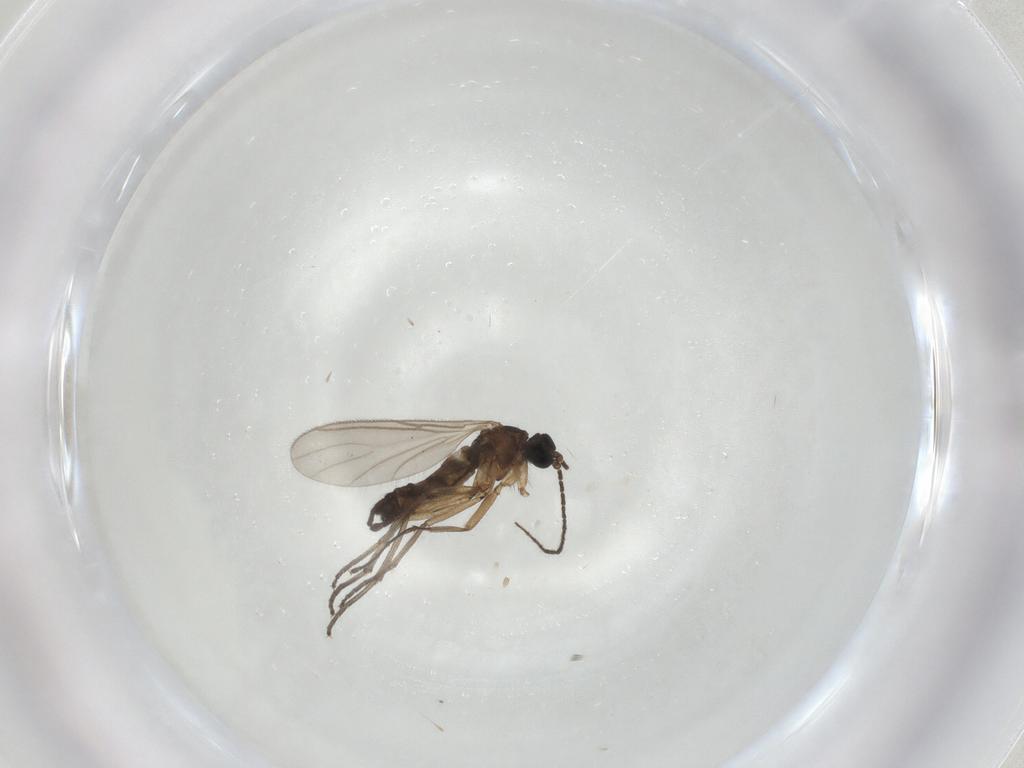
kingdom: Animalia
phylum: Arthropoda
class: Insecta
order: Diptera
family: Sciaridae
